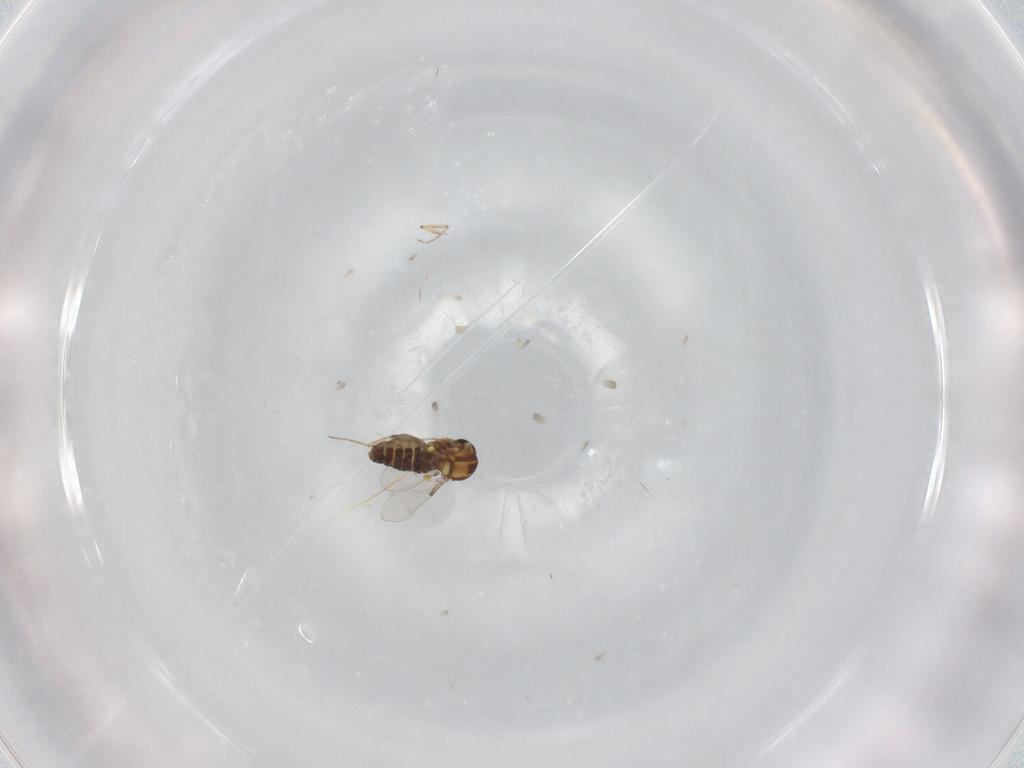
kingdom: Animalia
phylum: Arthropoda
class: Insecta
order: Diptera
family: Ceratopogonidae
